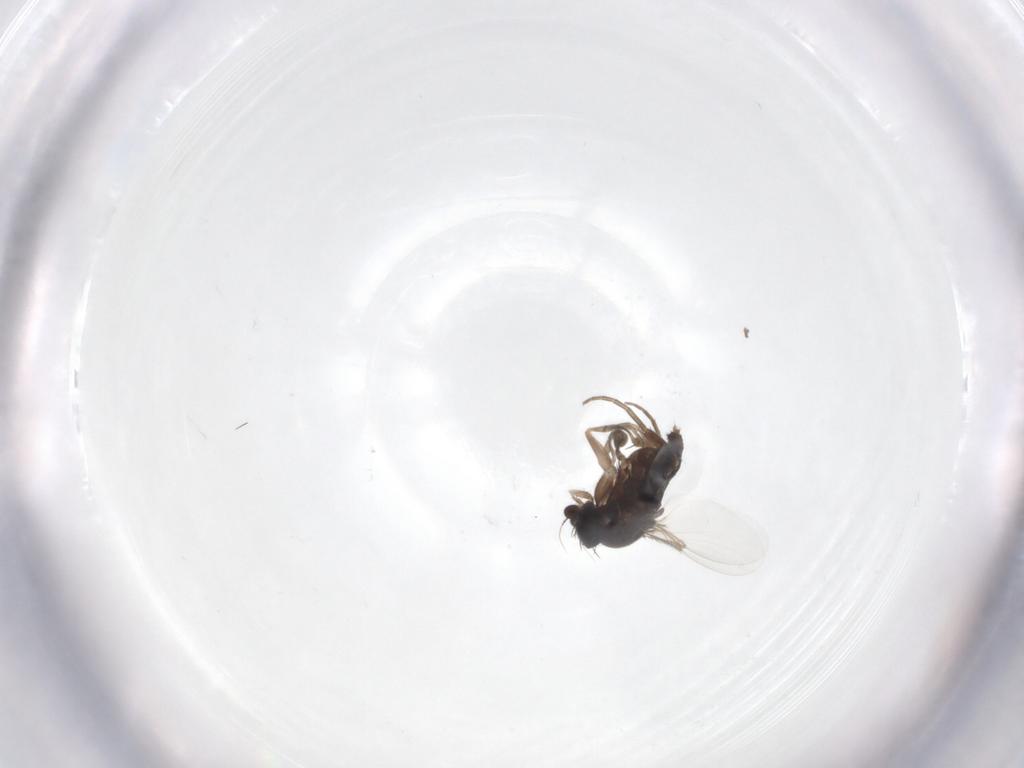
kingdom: Animalia
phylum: Arthropoda
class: Insecta
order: Diptera
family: Phoridae
